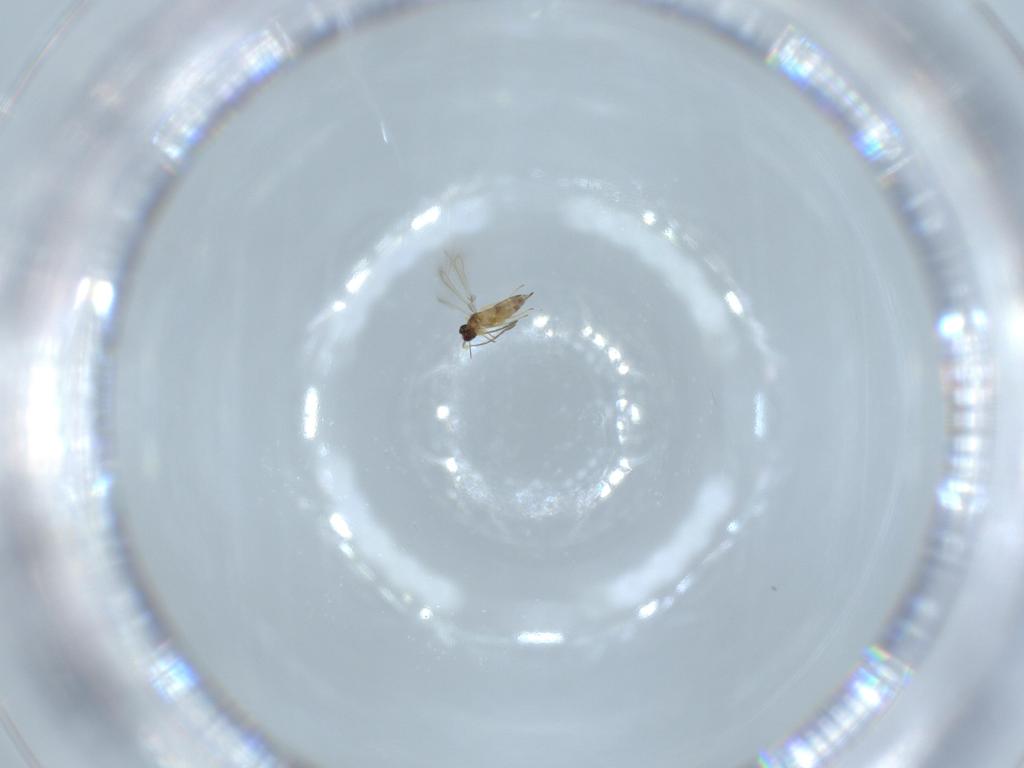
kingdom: Animalia
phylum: Arthropoda
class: Insecta
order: Hymenoptera
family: Mymaridae
